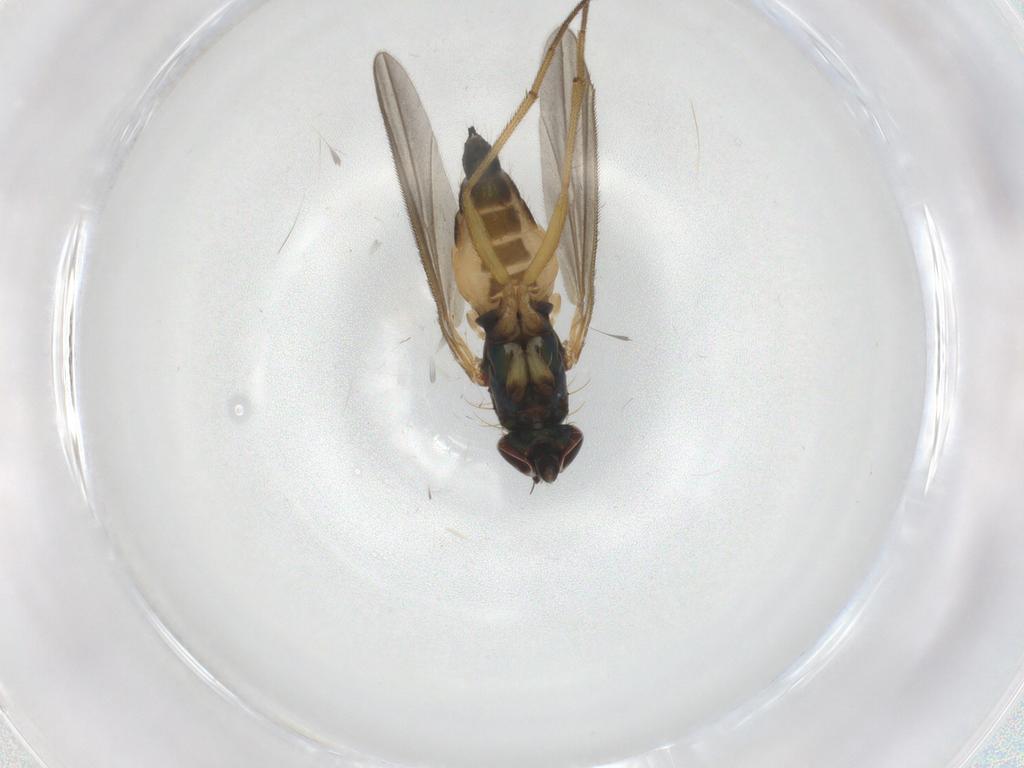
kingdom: Animalia
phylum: Arthropoda
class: Insecta
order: Diptera
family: Dolichopodidae
